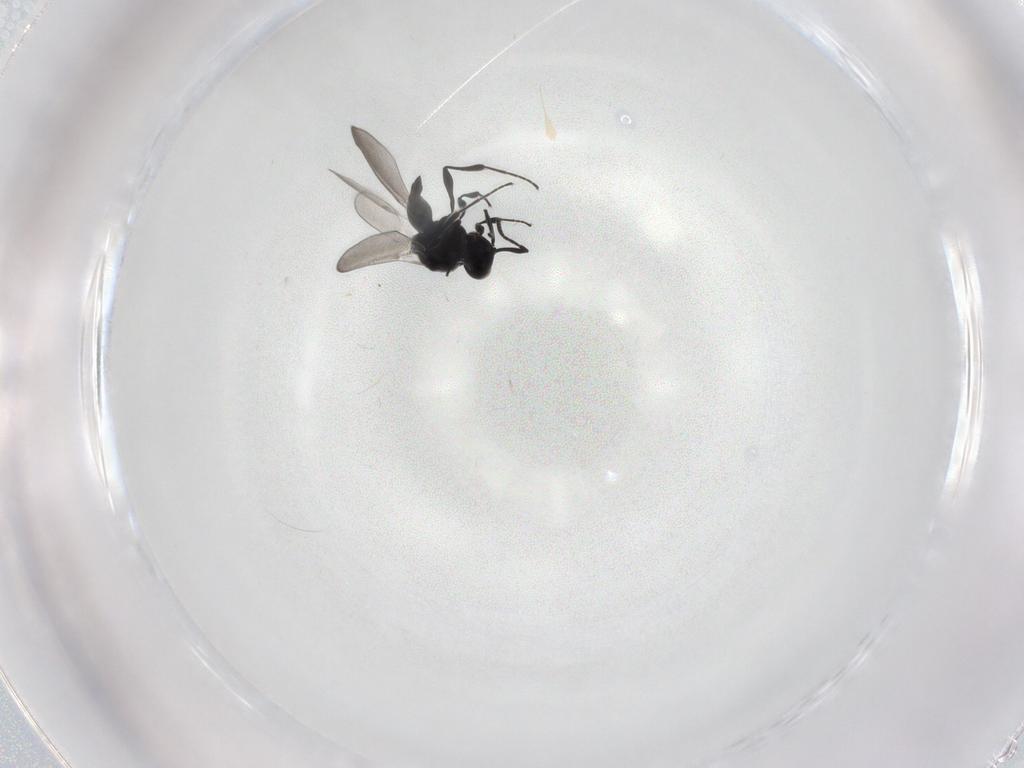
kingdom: Animalia
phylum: Arthropoda
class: Insecta
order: Diptera
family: Mythicomyiidae
